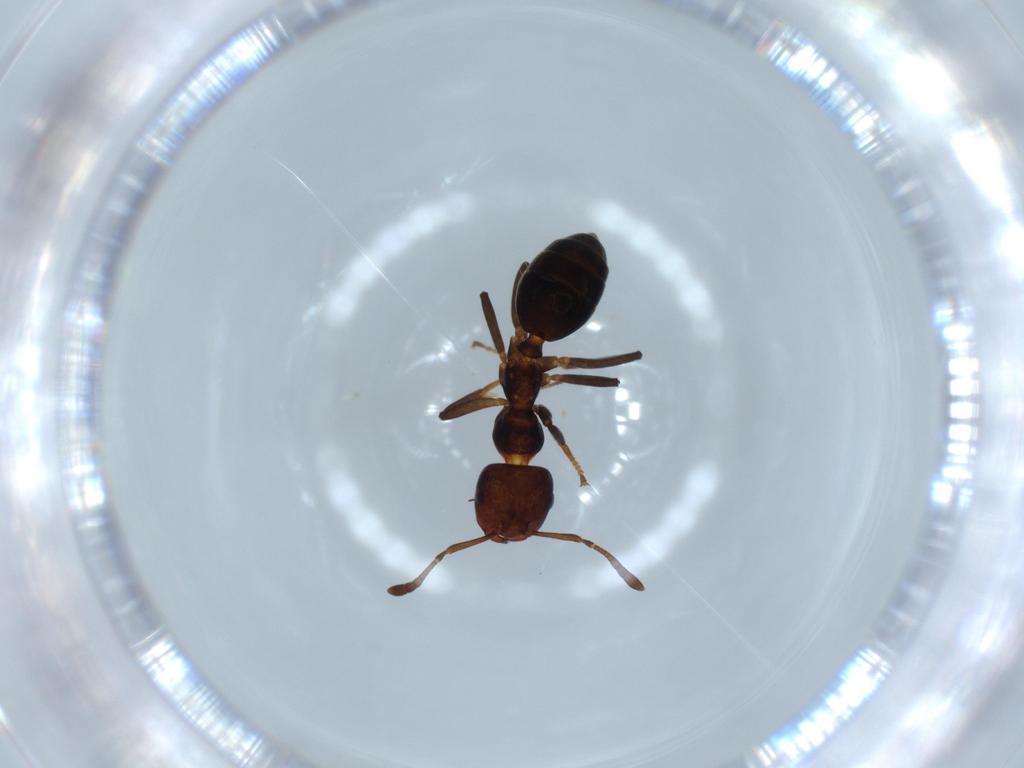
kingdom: Animalia
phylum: Arthropoda
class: Insecta
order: Hymenoptera
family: Formicidae
